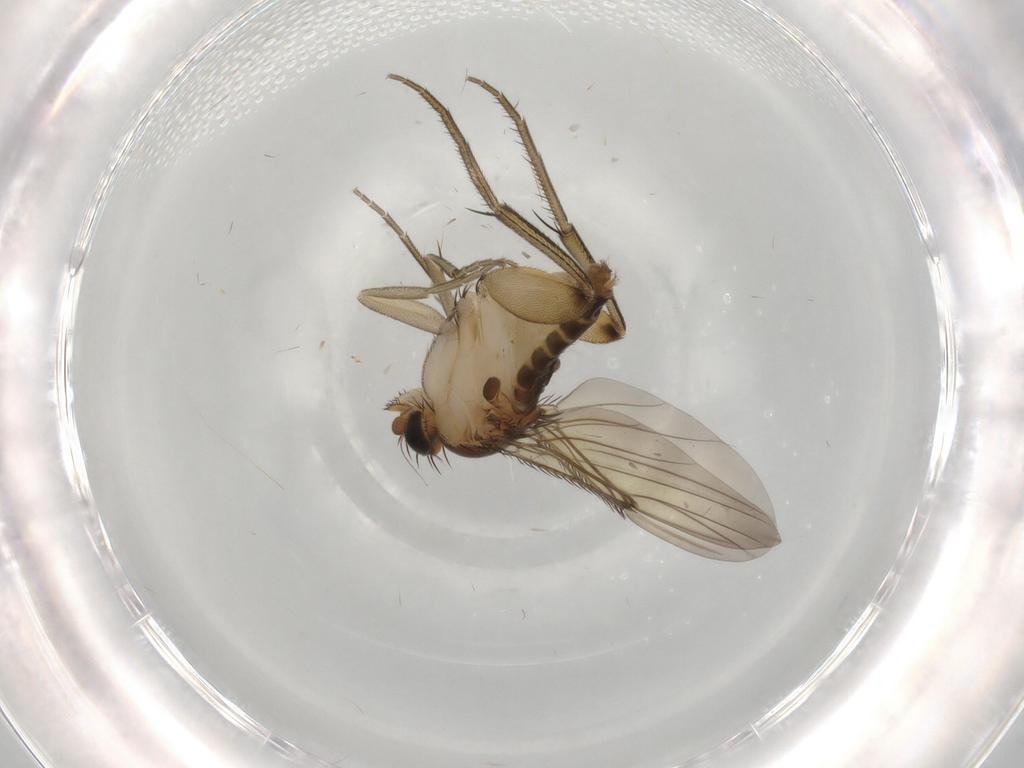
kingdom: Animalia
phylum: Arthropoda
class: Insecta
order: Diptera
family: Phoridae
